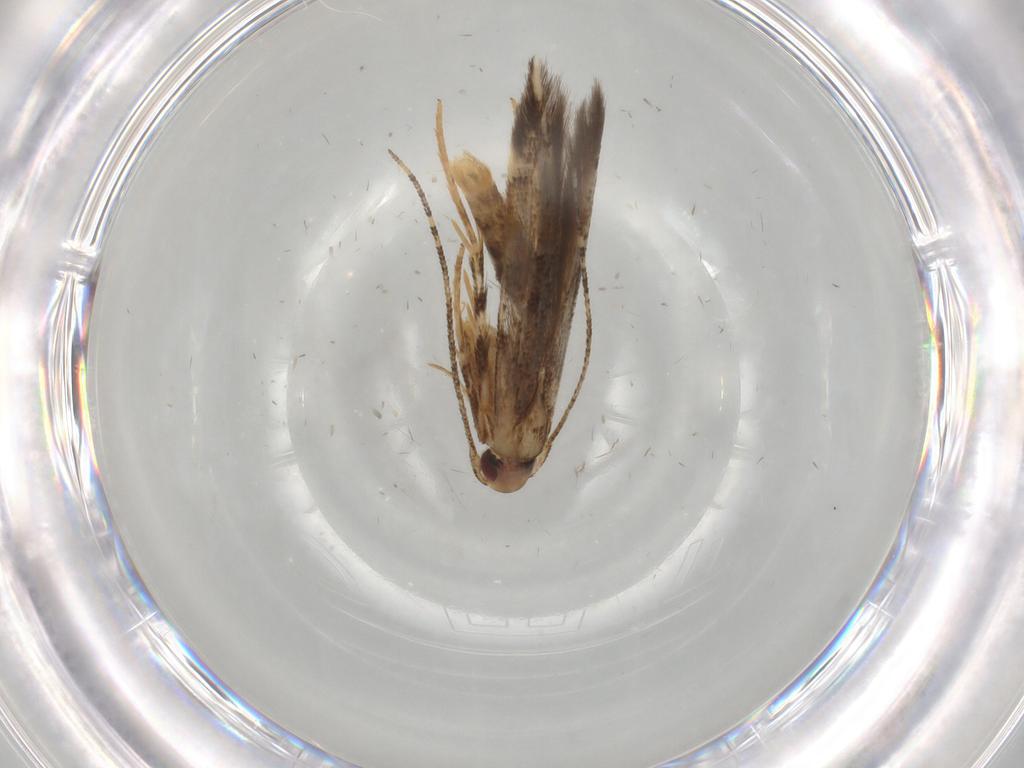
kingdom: Animalia
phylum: Arthropoda
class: Insecta
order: Lepidoptera
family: Cosmopterigidae
